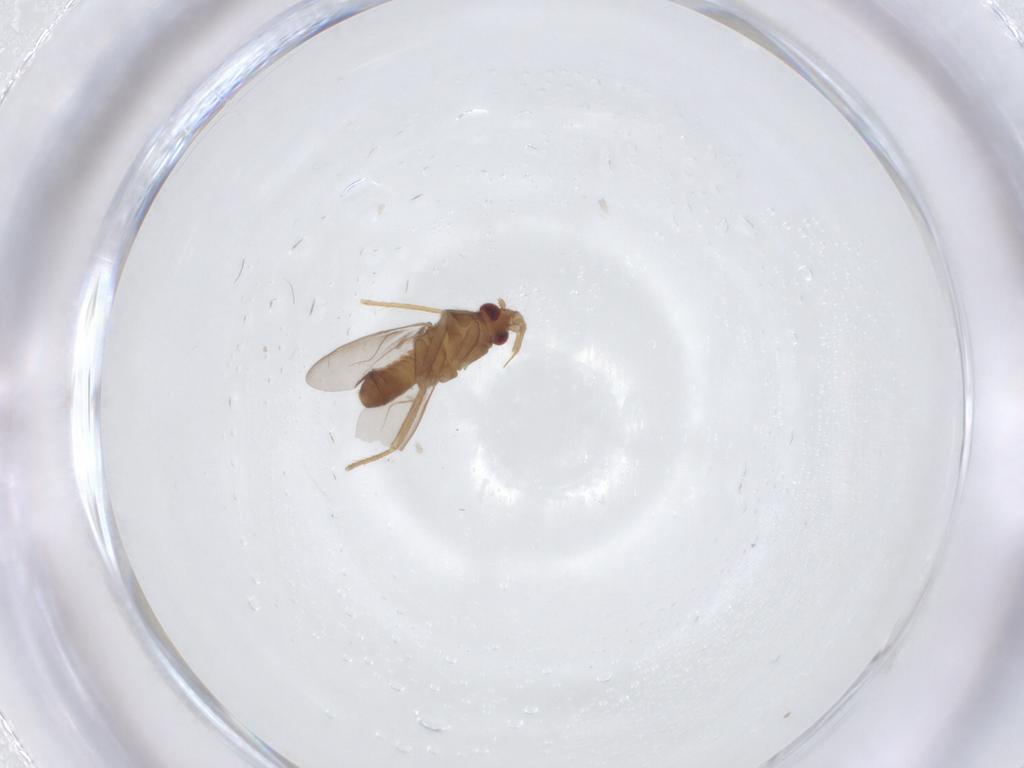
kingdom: Animalia
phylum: Arthropoda
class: Insecta
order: Hemiptera
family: Ceratocombidae
